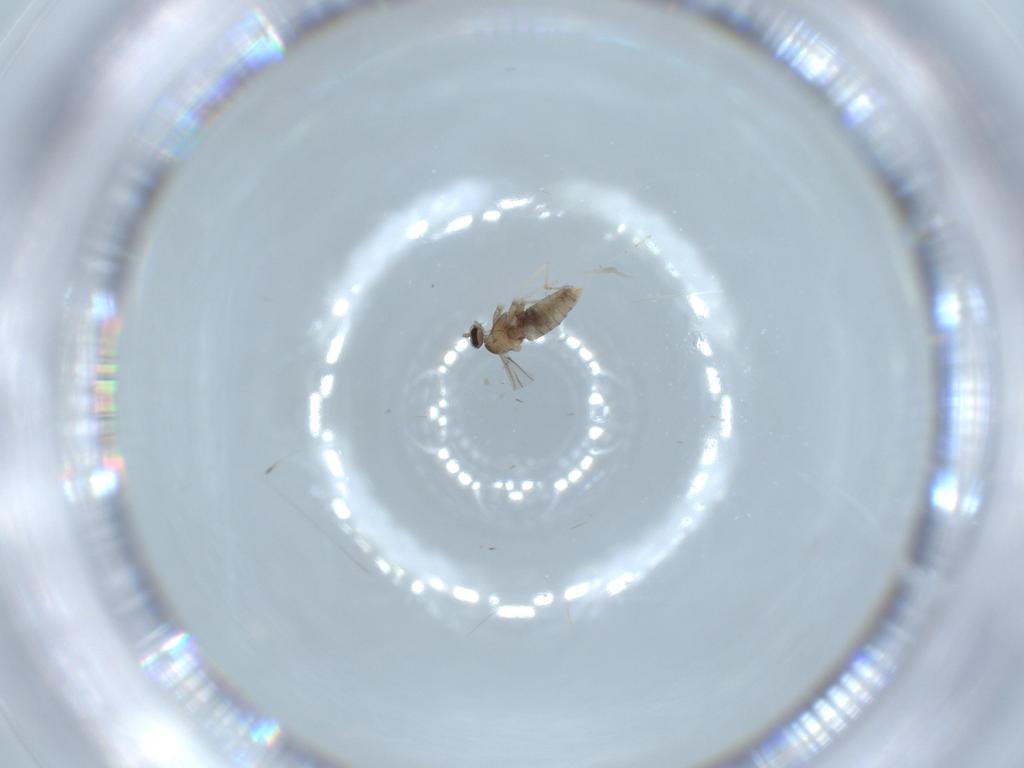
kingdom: Animalia
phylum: Arthropoda
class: Insecta
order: Diptera
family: Cecidomyiidae
